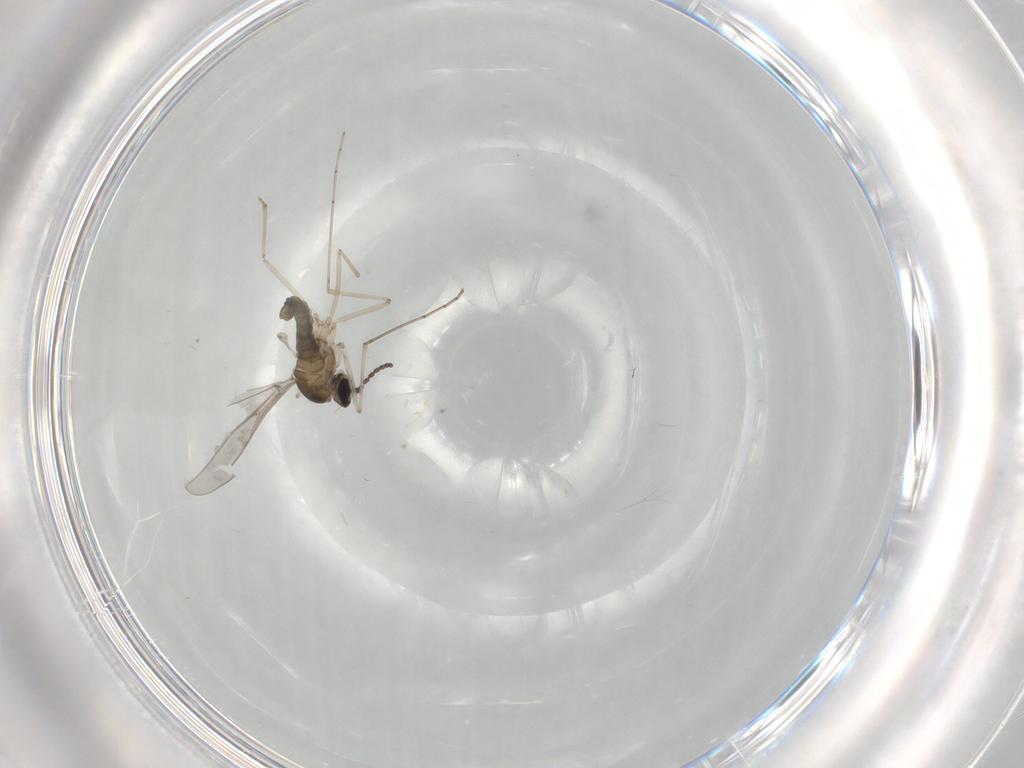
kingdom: Animalia
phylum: Arthropoda
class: Insecta
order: Diptera
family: Cecidomyiidae
